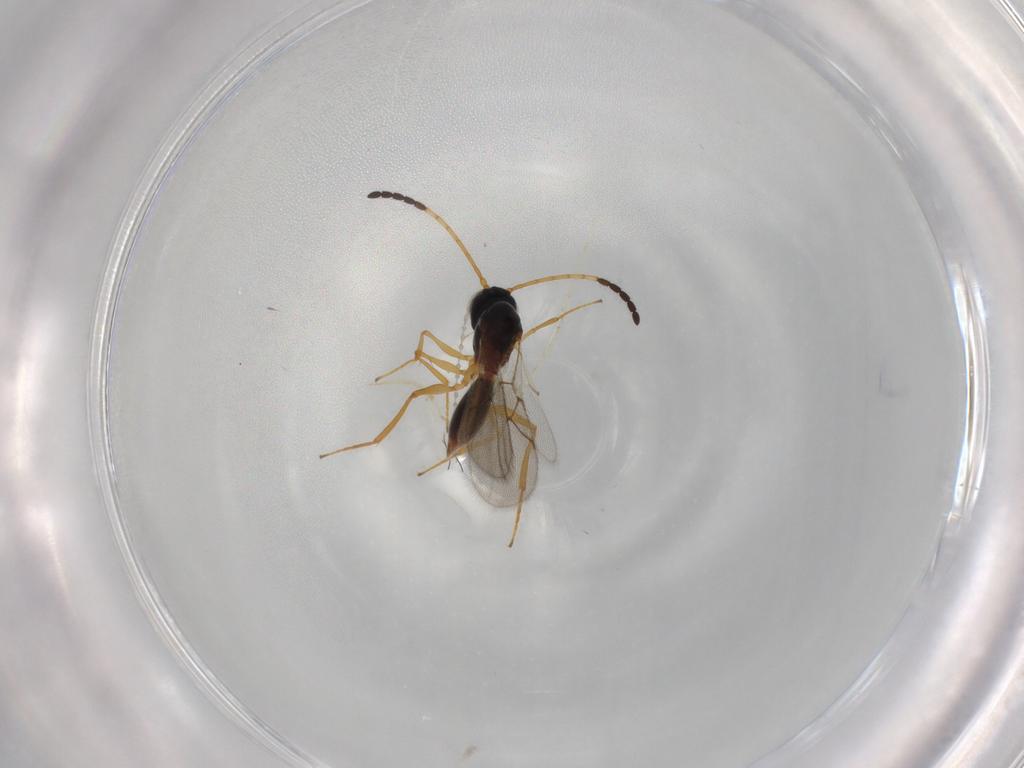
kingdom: Animalia
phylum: Arthropoda
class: Insecta
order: Hymenoptera
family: Figitidae
